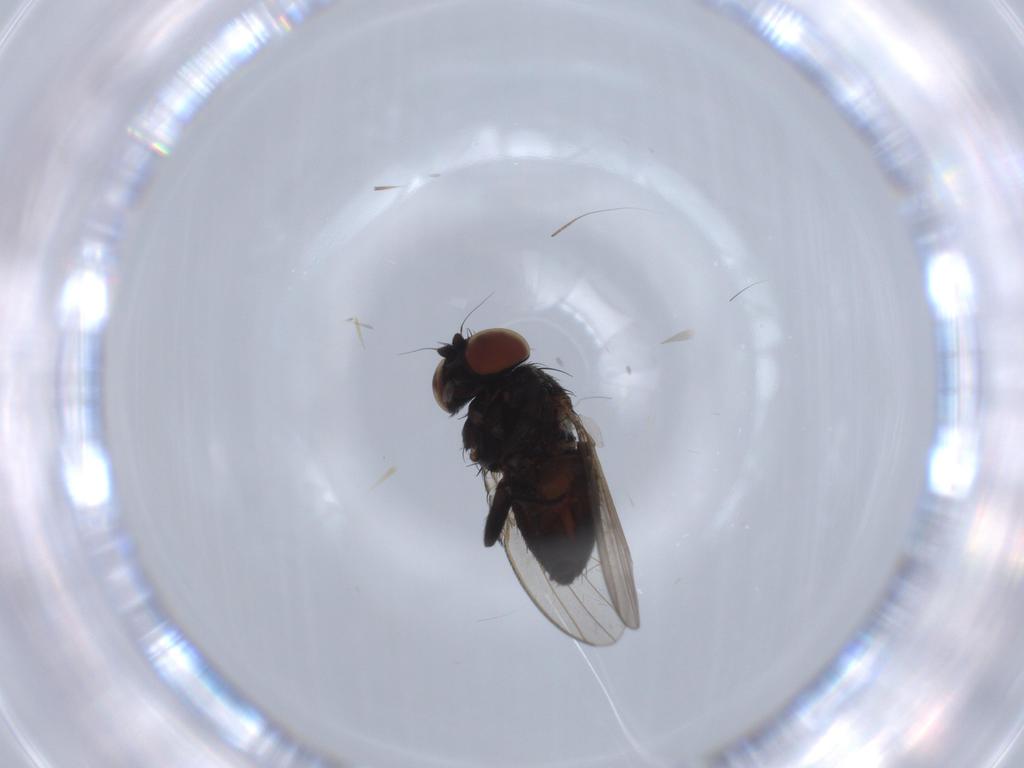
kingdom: Animalia
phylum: Arthropoda
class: Insecta
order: Diptera
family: Milichiidae
